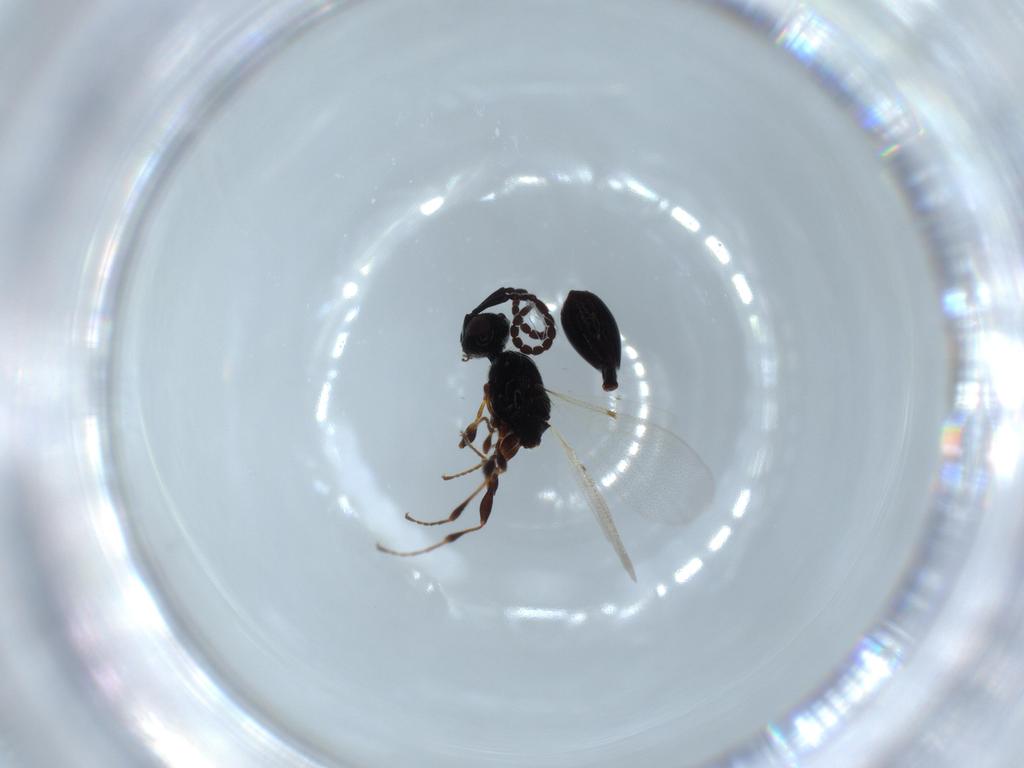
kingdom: Animalia
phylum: Arthropoda
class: Insecta
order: Hymenoptera
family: Diapriidae
